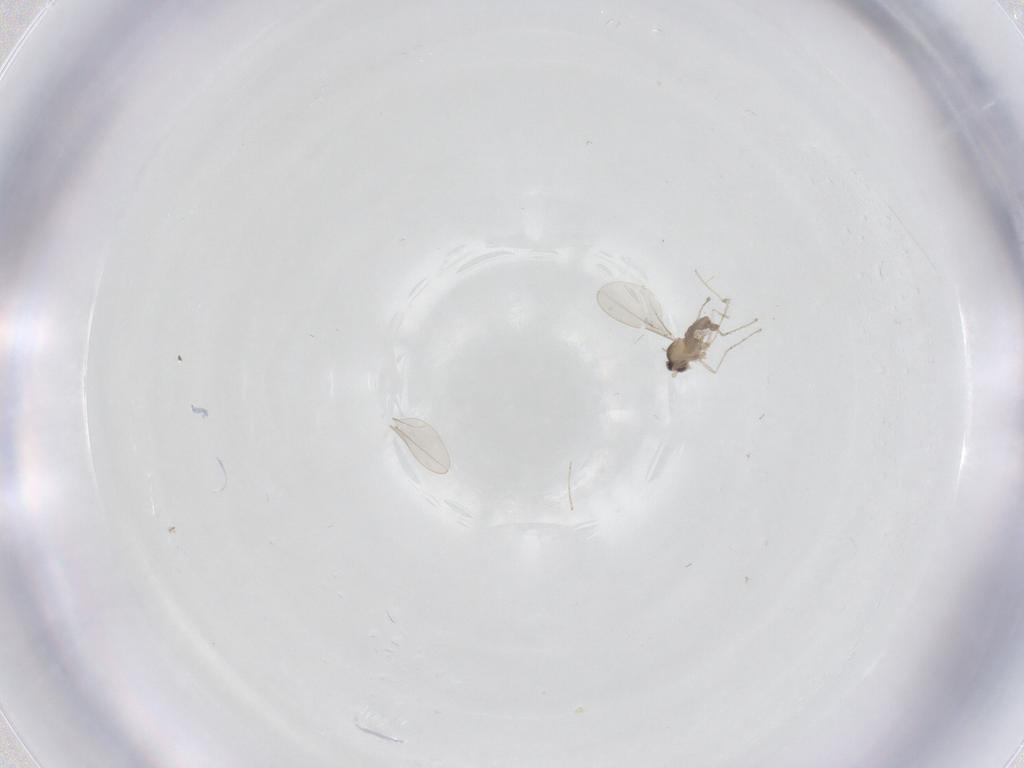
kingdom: Animalia
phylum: Arthropoda
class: Insecta
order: Diptera
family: Cecidomyiidae
